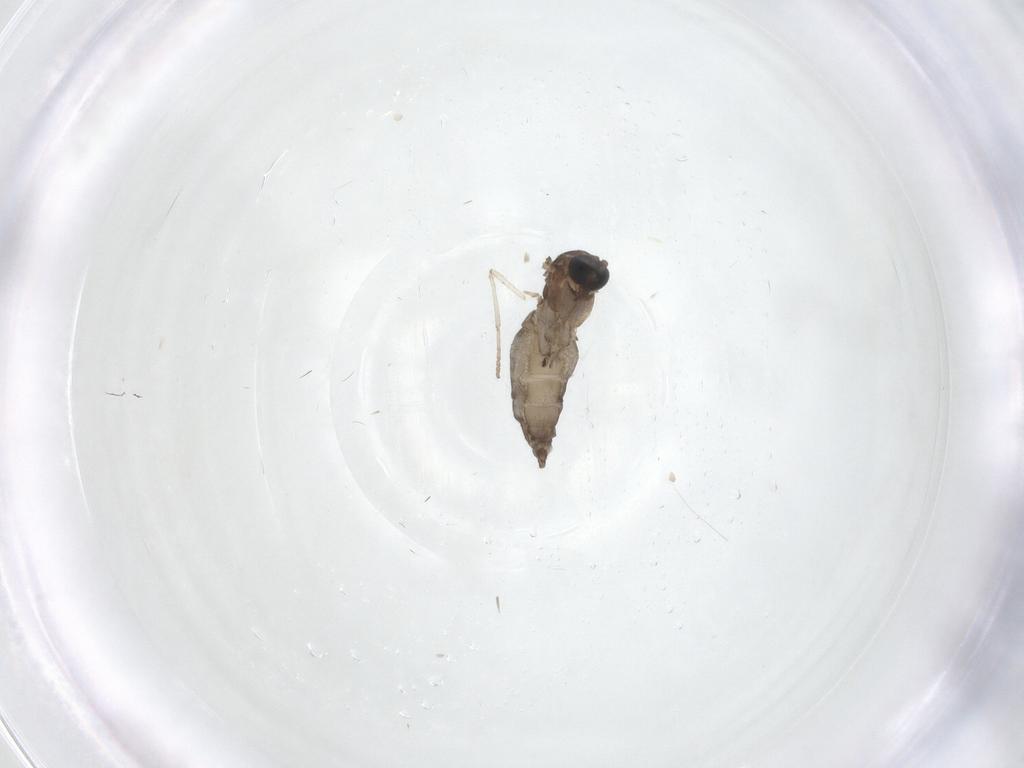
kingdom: Animalia
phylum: Arthropoda
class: Insecta
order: Diptera
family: Sciaridae
